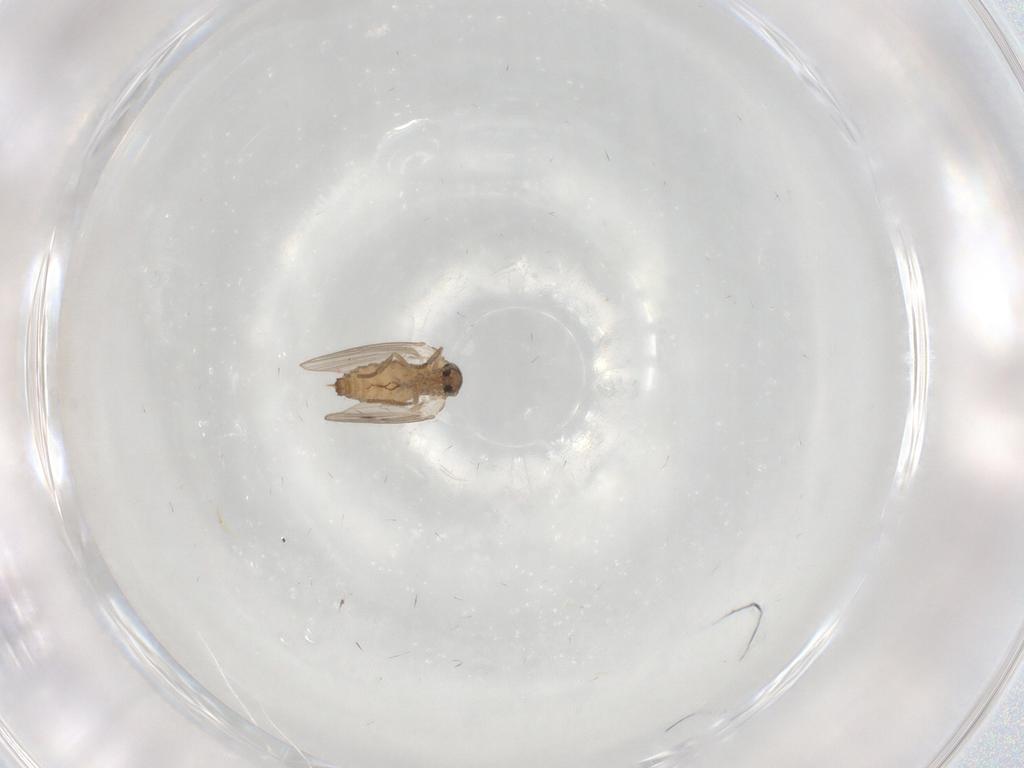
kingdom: Animalia
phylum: Arthropoda
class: Insecta
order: Diptera
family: Psychodidae
